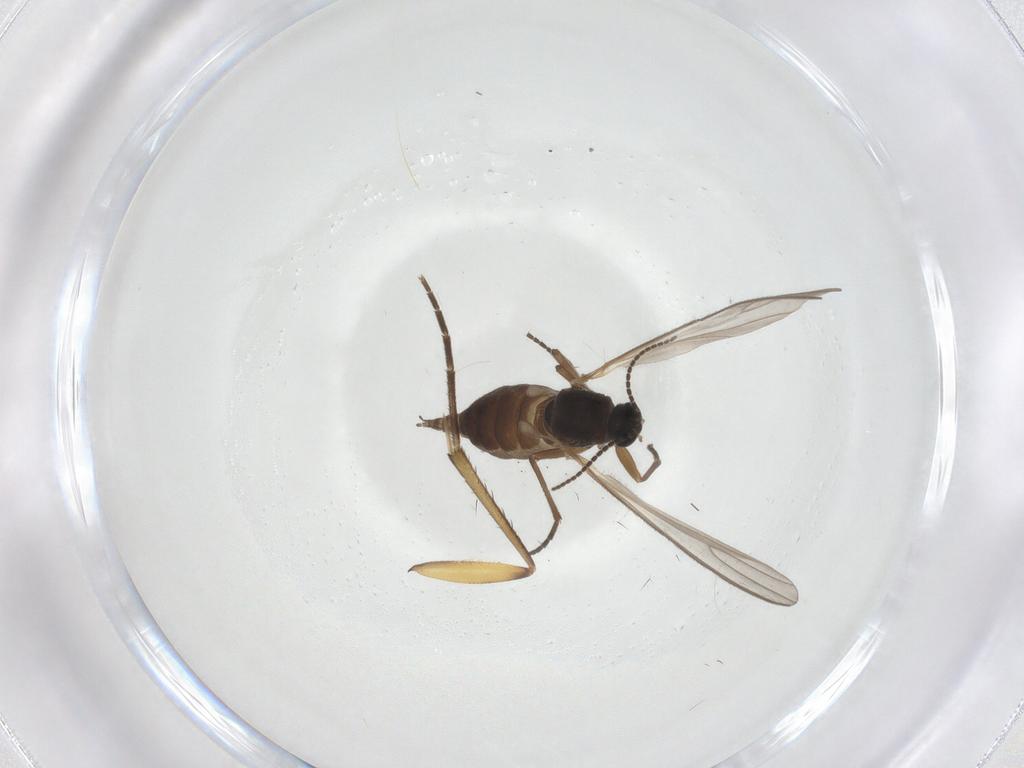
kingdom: Animalia
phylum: Arthropoda
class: Insecta
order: Diptera
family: Mycetophilidae
